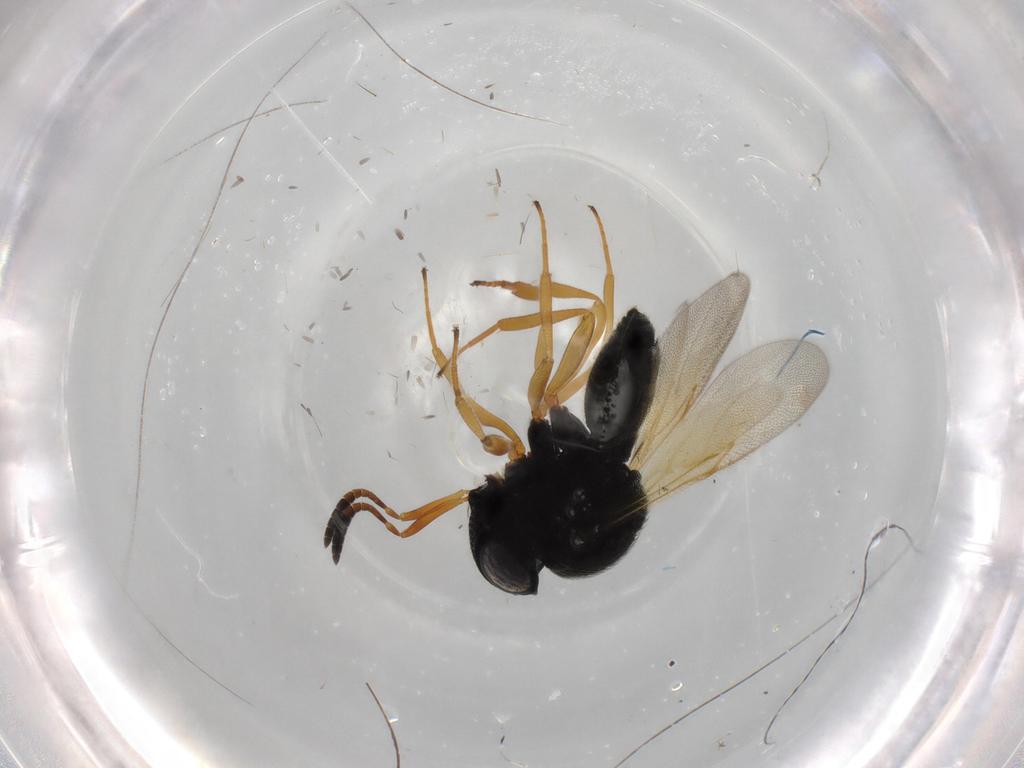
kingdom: Animalia
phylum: Arthropoda
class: Insecta
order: Hymenoptera
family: Scelionidae
